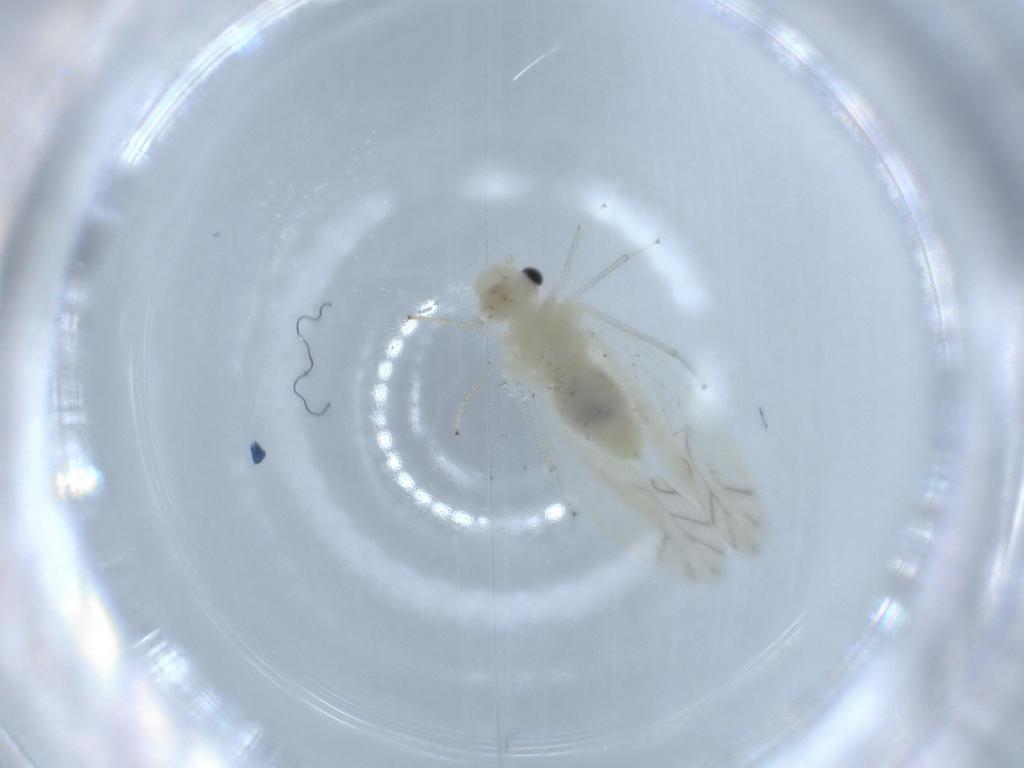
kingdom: Animalia
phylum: Arthropoda
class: Insecta
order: Psocodea
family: Caeciliusidae
